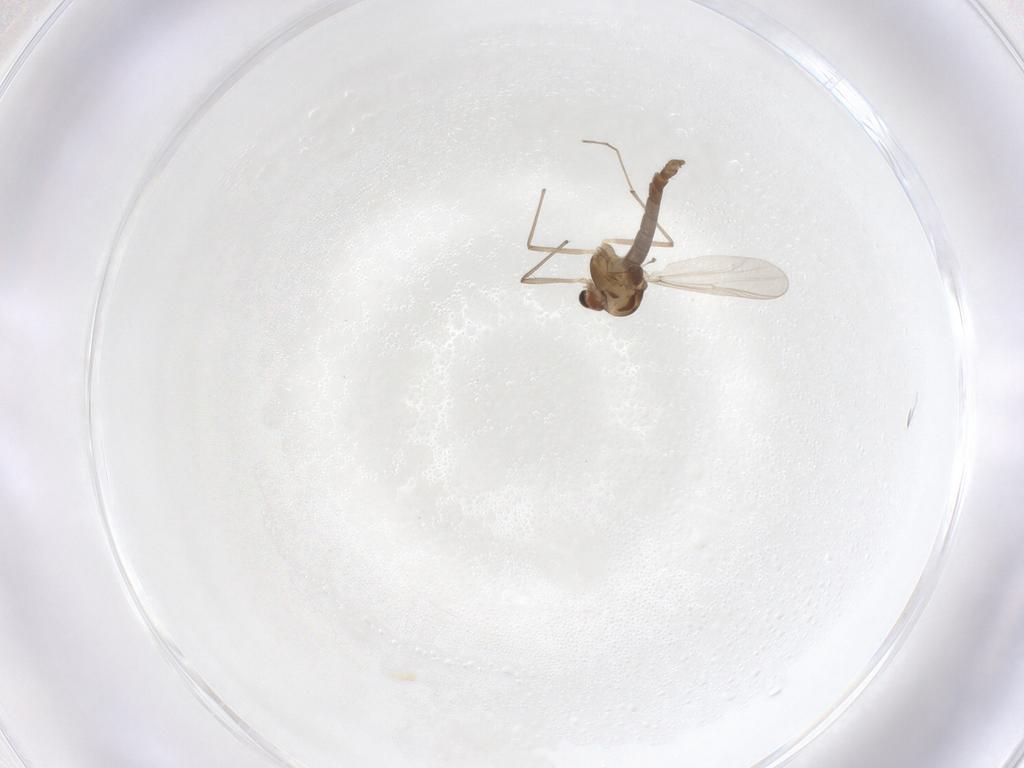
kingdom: Animalia
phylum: Arthropoda
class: Insecta
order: Diptera
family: Chironomidae
